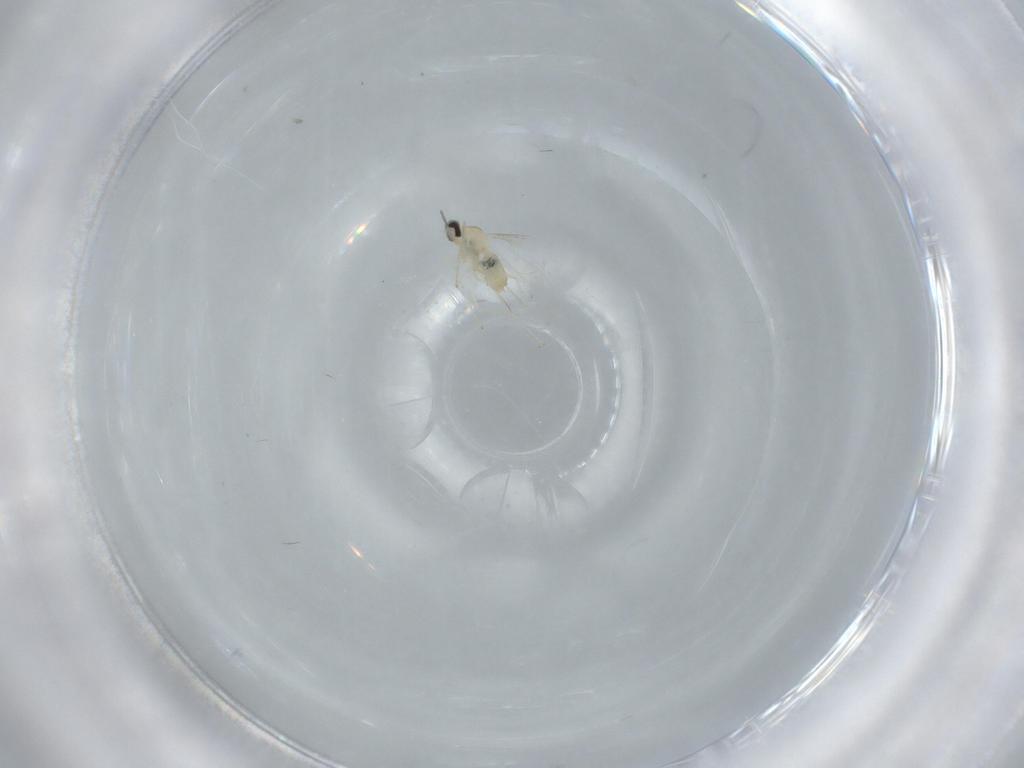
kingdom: Animalia
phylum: Arthropoda
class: Insecta
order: Diptera
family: Cecidomyiidae
